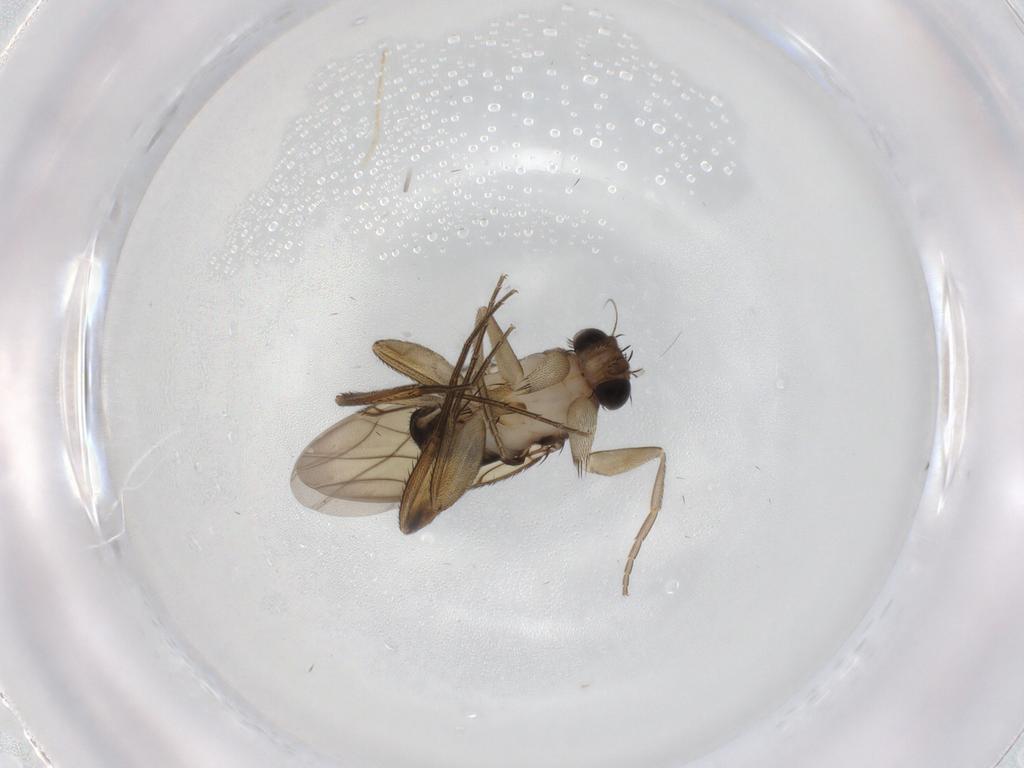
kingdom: Animalia
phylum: Arthropoda
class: Insecta
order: Diptera
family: Phoridae
